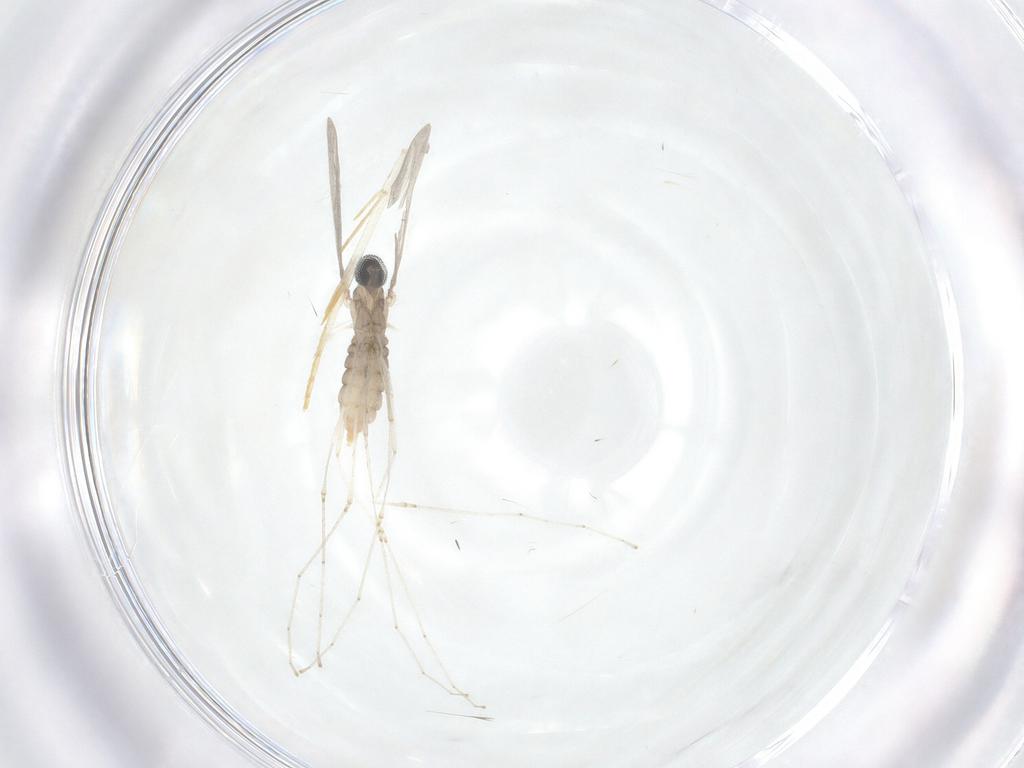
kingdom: Animalia
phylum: Arthropoda
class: Insecta
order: Diptera
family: Cecidomyiidae
